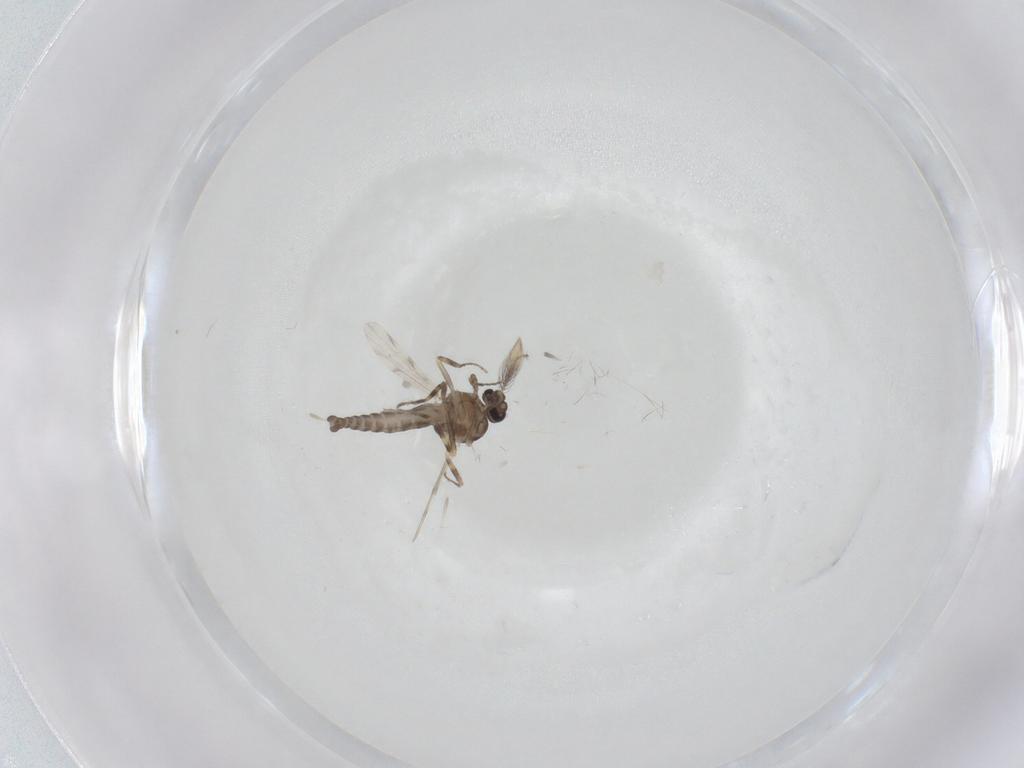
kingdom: Animalia
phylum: Arthropoda
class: Insecta
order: Diptera
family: Ceratopogonidae
